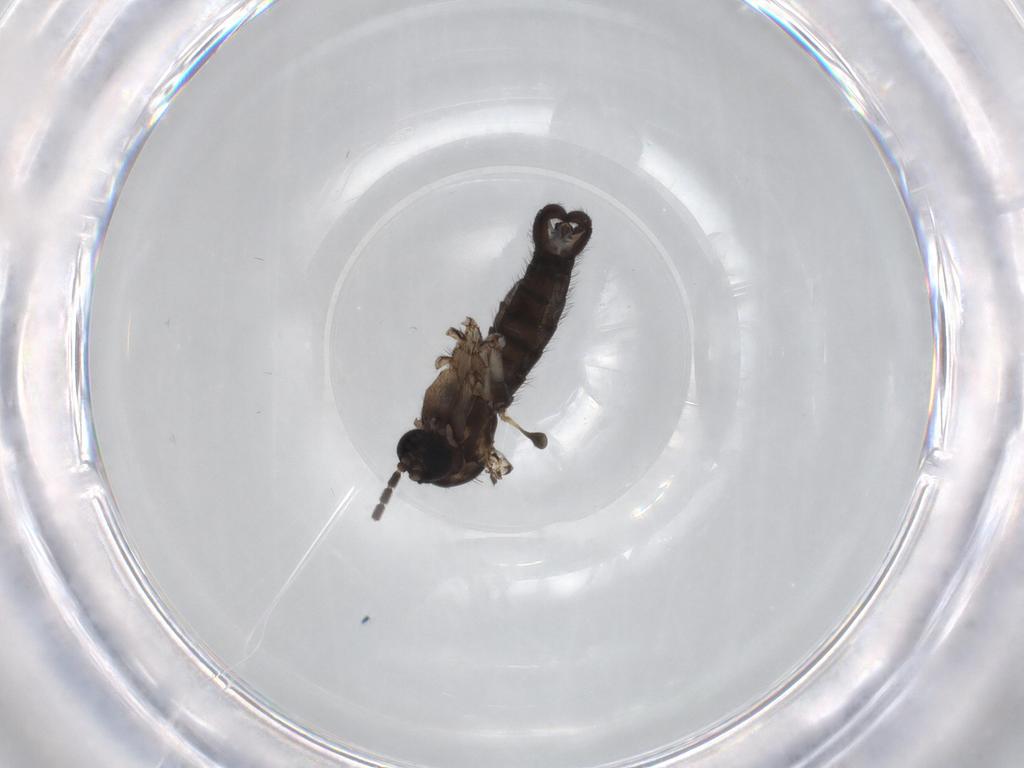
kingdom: Animalia
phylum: Arthropoda
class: Insecta
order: Diptera
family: Sciaridae
